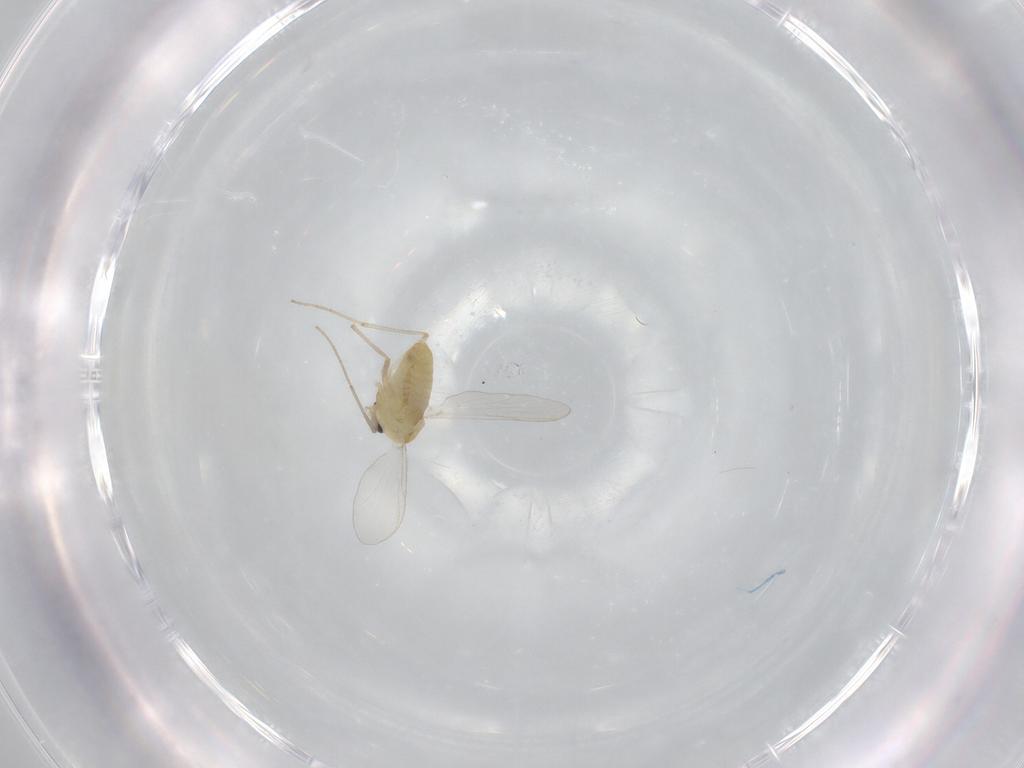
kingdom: Animalia
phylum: Arthropoda
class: Insecta
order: Diptera
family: Chironomidae
